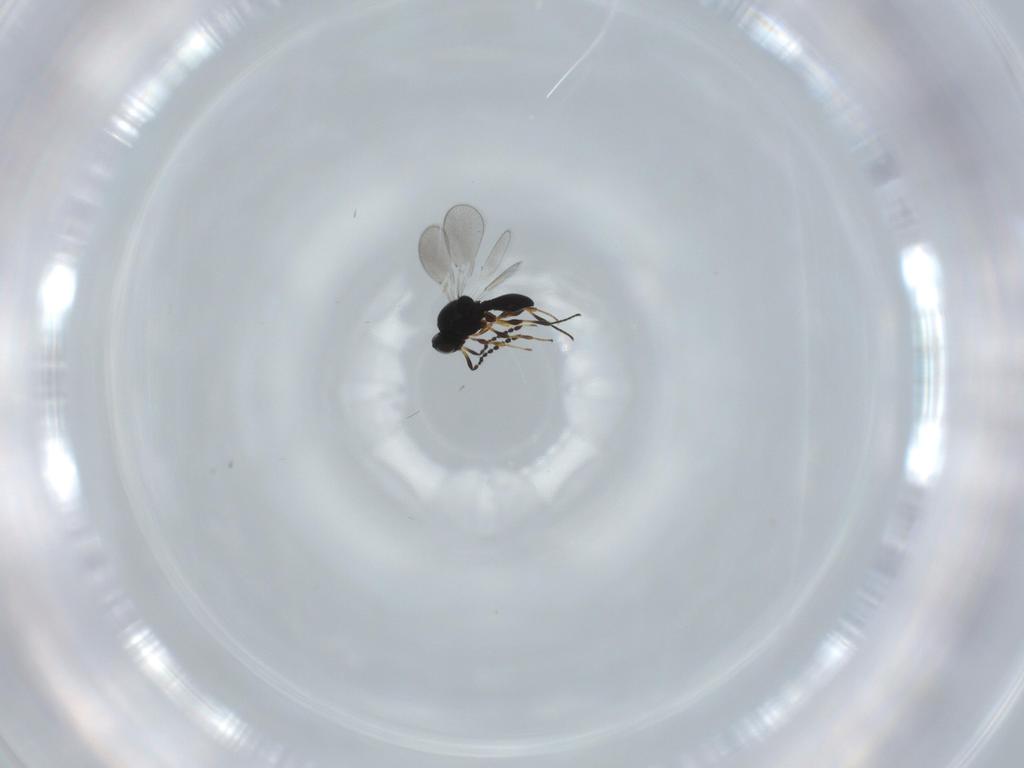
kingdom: Animalia
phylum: Arthropoda
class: Insecta
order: Hymenoptera
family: Platygastridae
